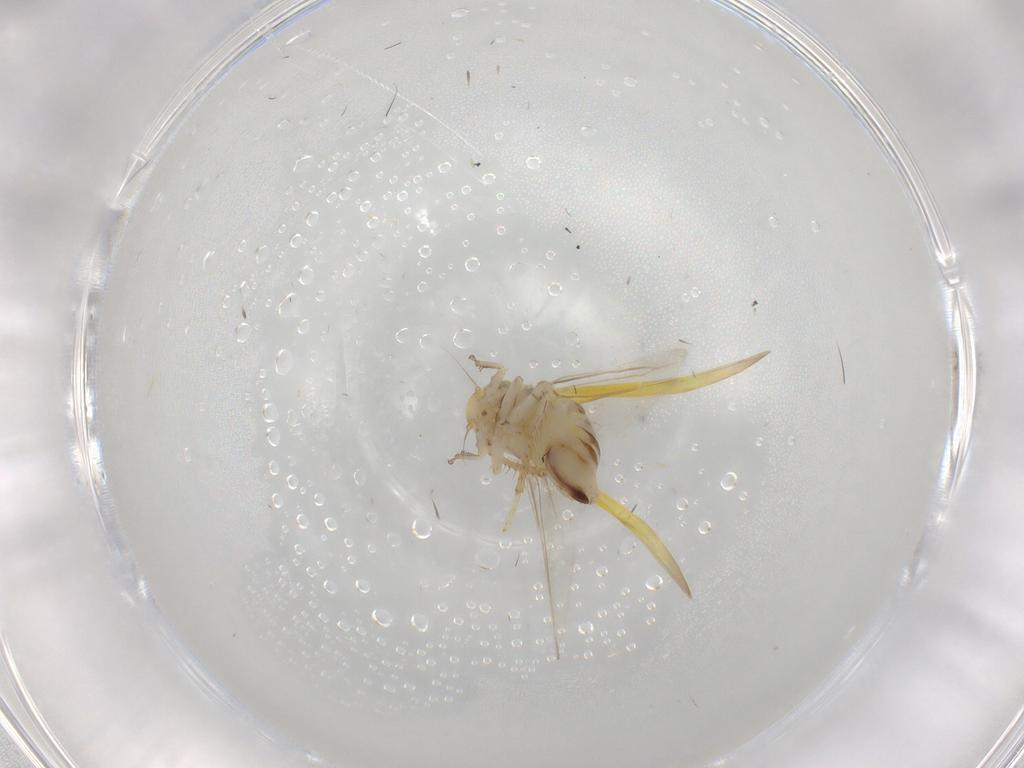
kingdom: Animalia
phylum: Arthropoda
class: Insecta
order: Hemiptera
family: Cicadellidae
